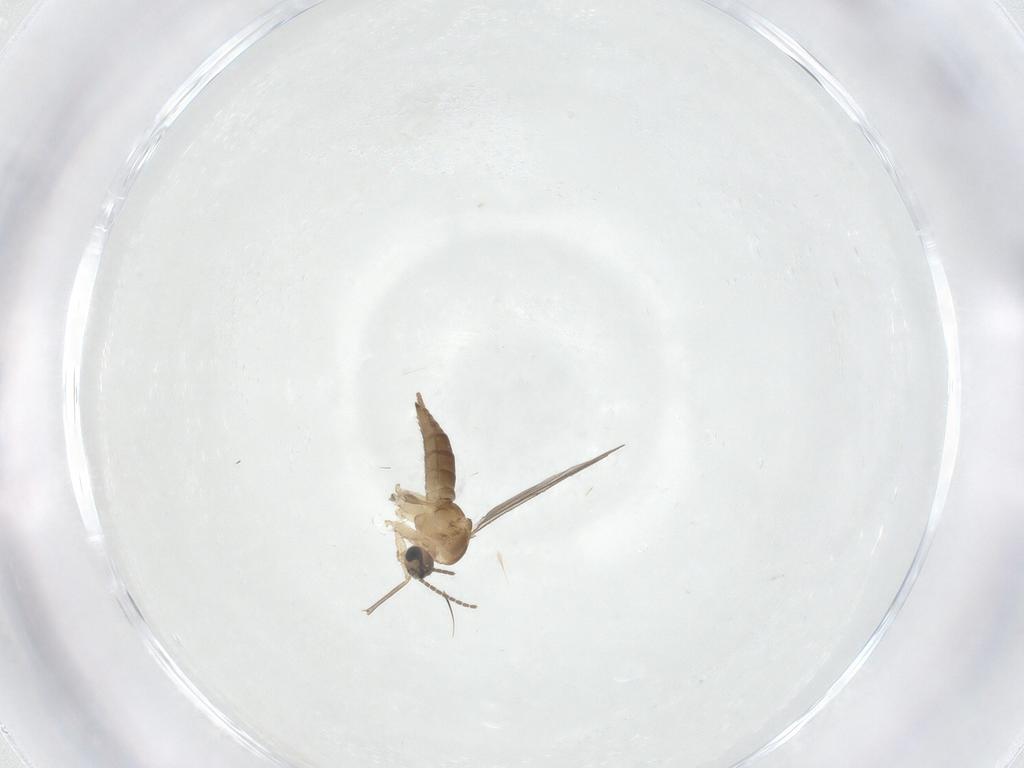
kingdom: Animalia
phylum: Arthropoda
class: Insecta
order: Diptera
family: Sciaridae
